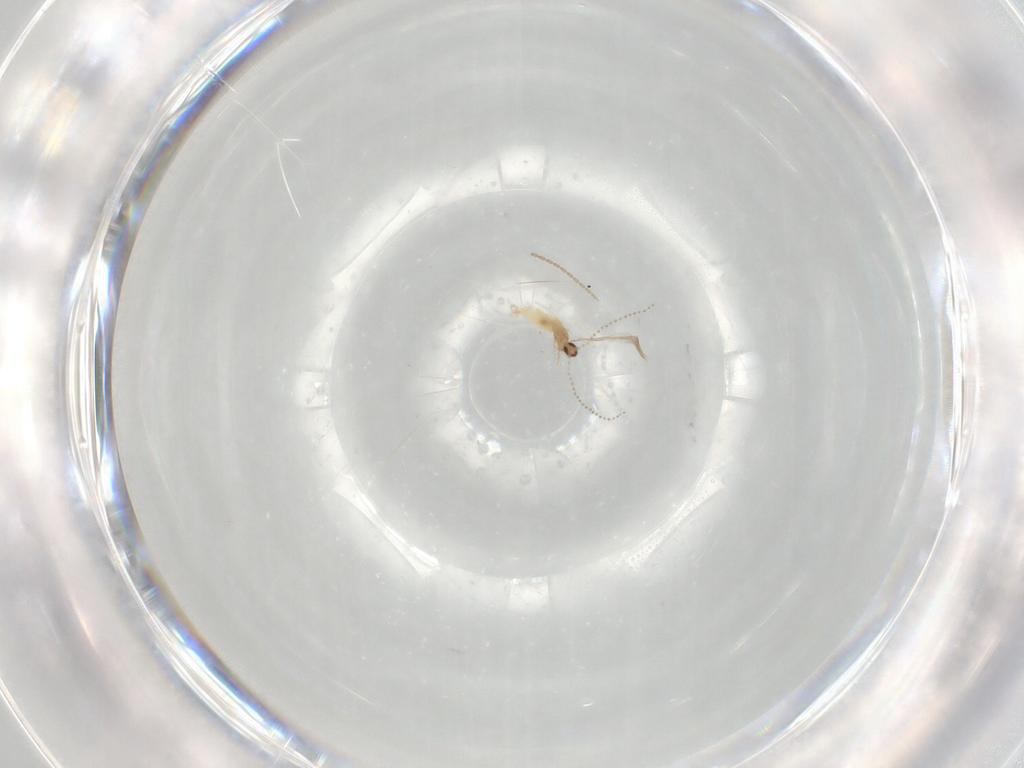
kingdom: Animalia
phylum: Arthropoda
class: Insecta
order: Diptera
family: Cecidomyiidae
